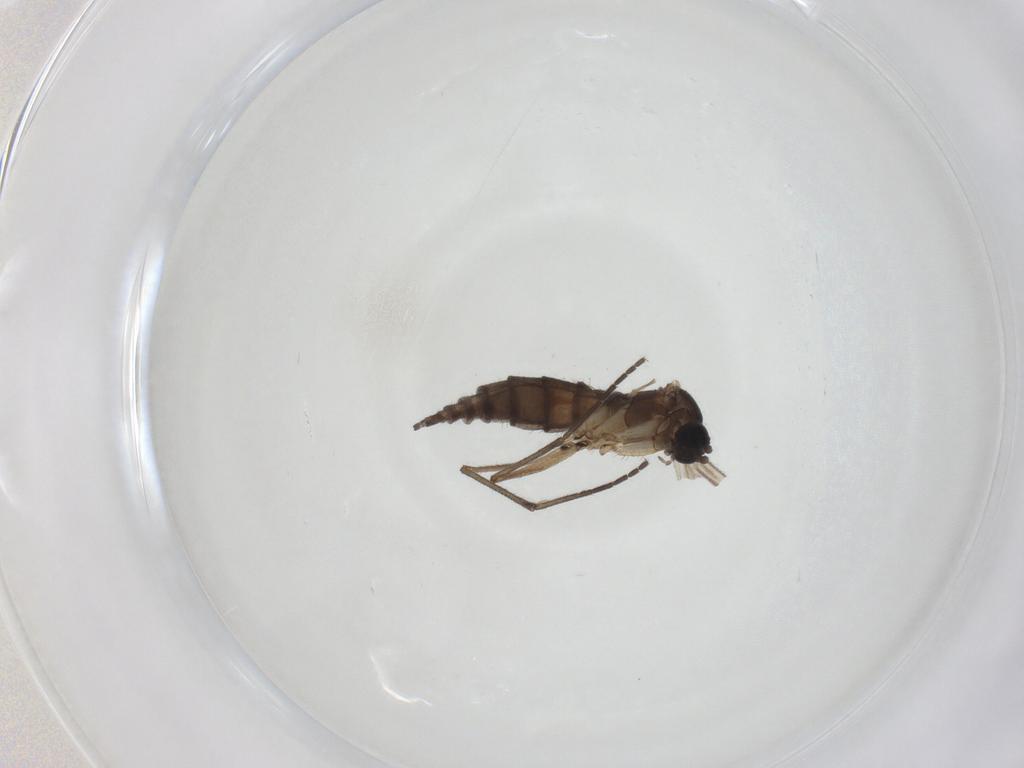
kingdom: Animalia
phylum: Arthropoda
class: Insecta
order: Diptera
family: Sciaridae
